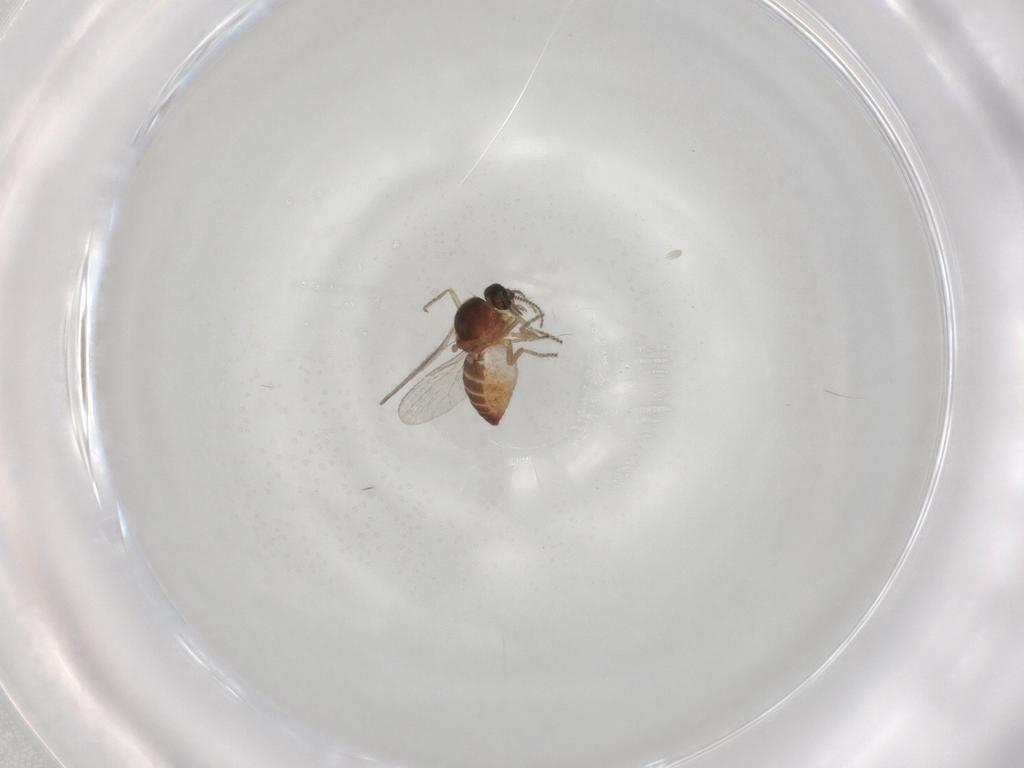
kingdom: Animalia
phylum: Arthropoda
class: Insecta
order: Diptera
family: Ceratopogonidae
